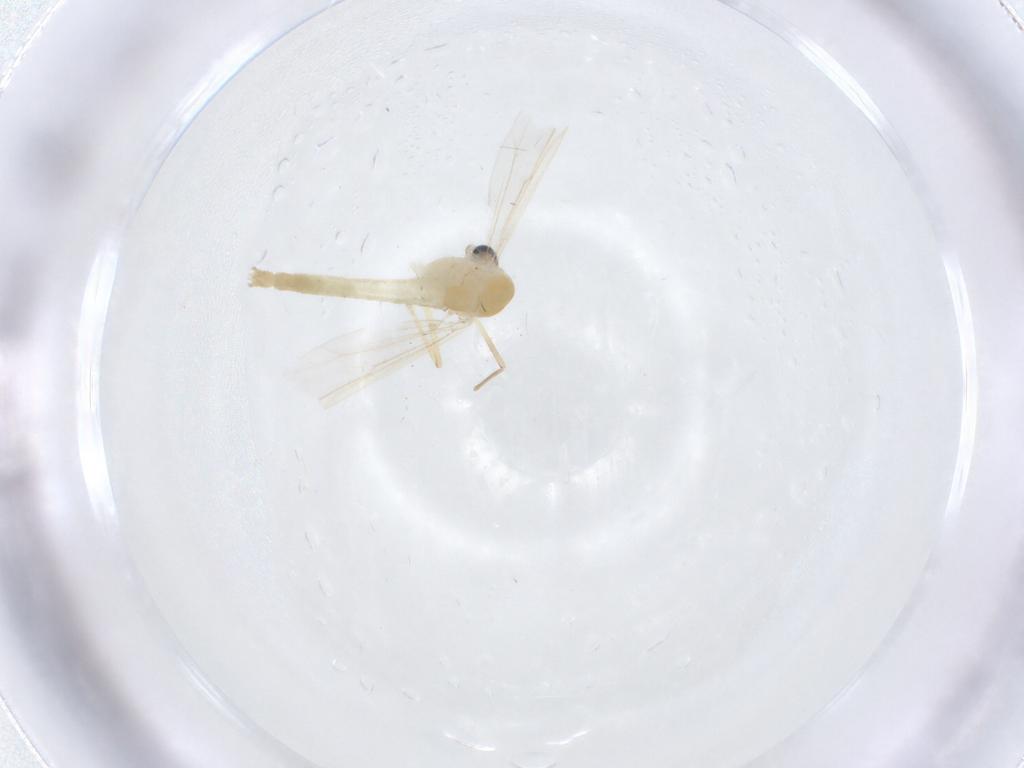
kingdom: Animalia
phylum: Arthropoda
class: Insecta
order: Diptera
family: Cecidomyiidae
